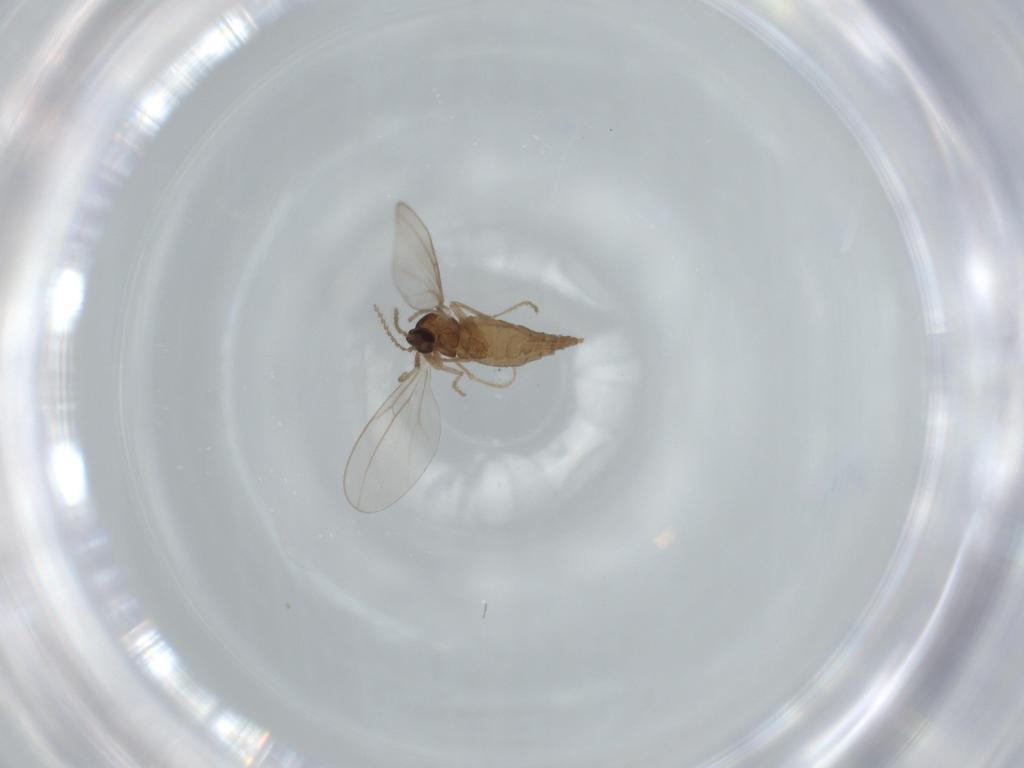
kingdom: Animalia
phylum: Arthropoda
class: Insecta
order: Diptera
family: Cecidomyiidae
